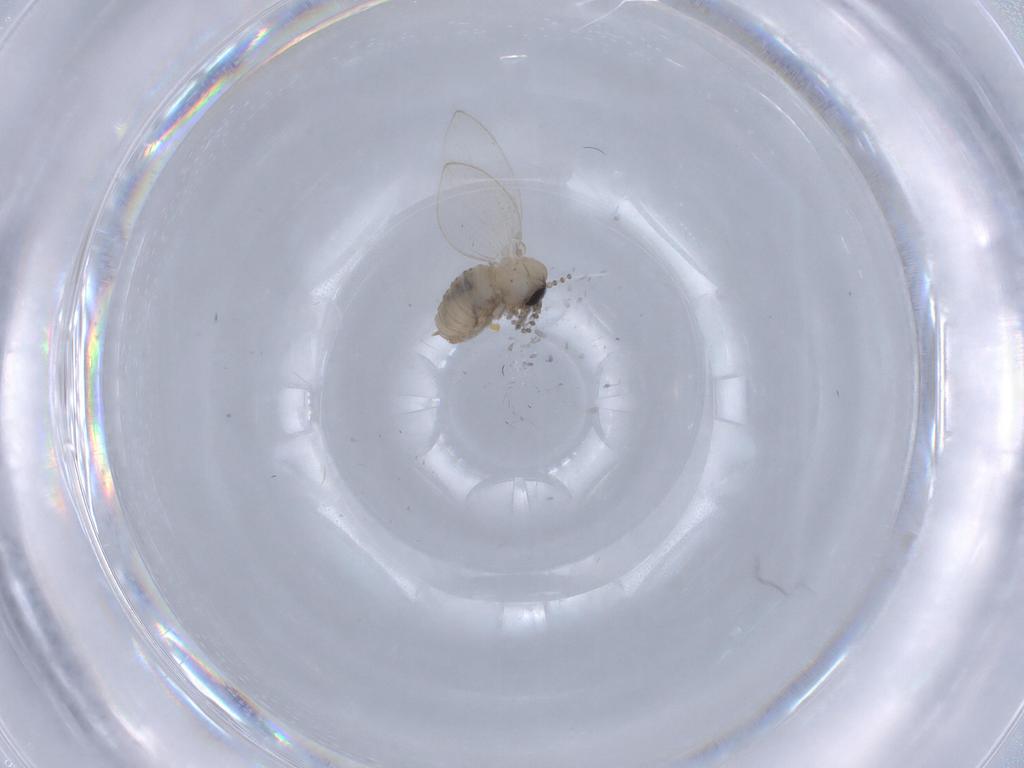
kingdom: Animalia
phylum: Arthropoda
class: Insecta
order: Diptera
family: Psychodidae
